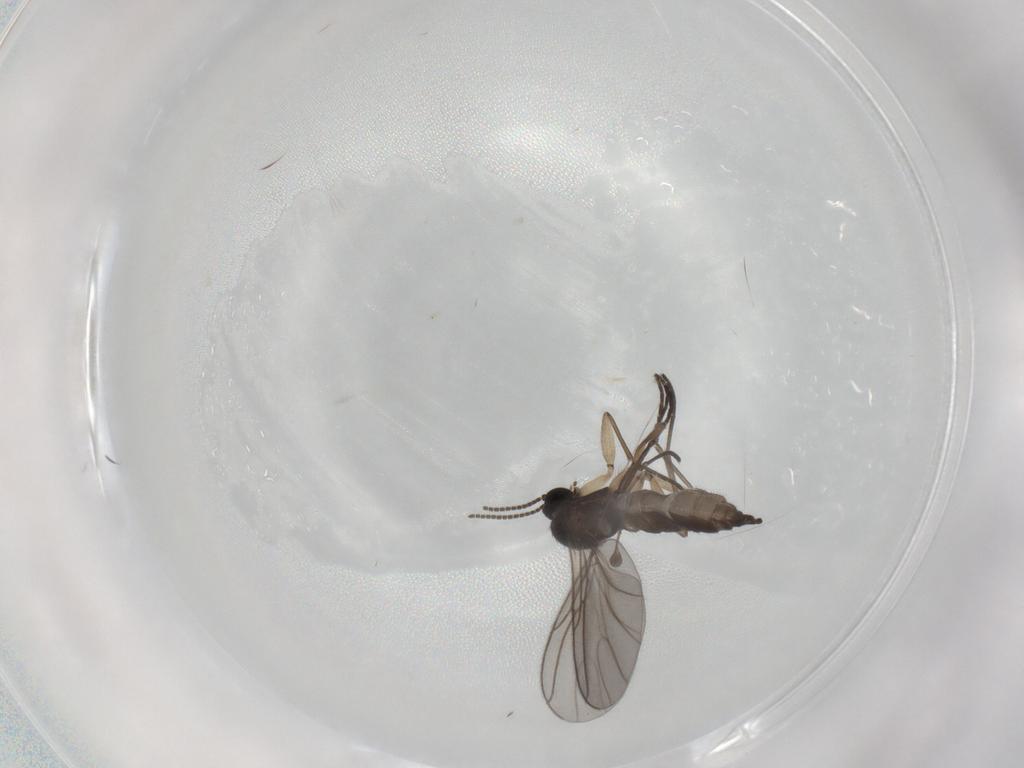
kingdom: Animalia
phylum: Arthropoda
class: Insecta
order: Diptera
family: Sciaridae
